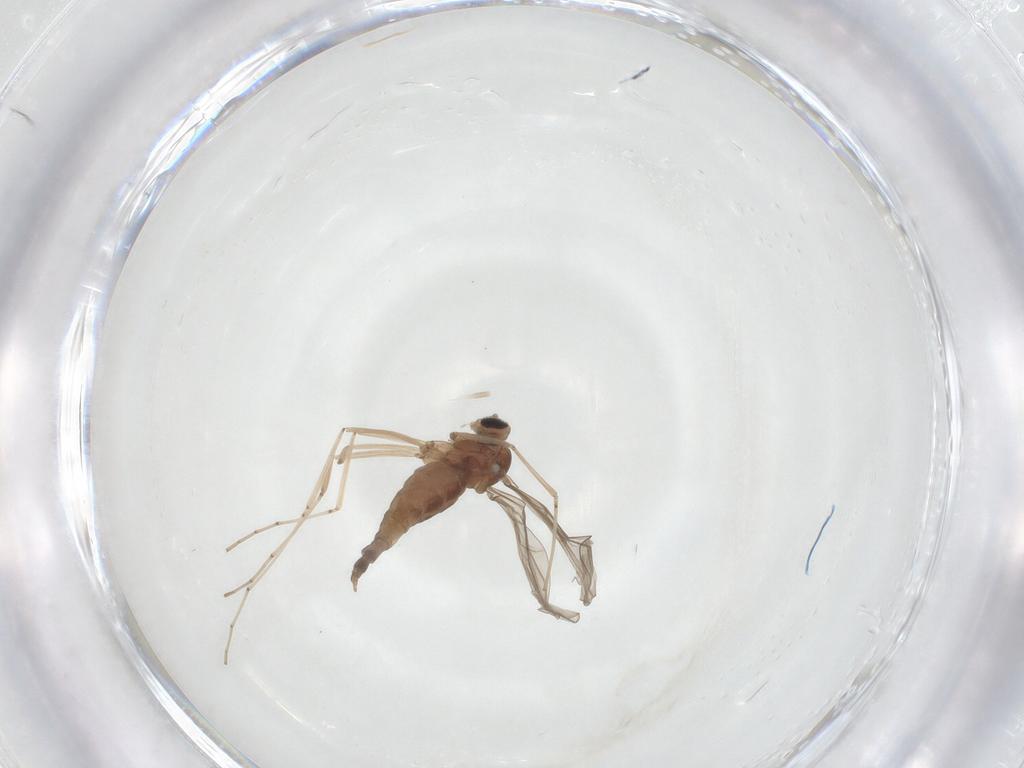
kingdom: Animalia
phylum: Arthropoda
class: Insecta
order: Diptera
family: Cecidomyiidae
